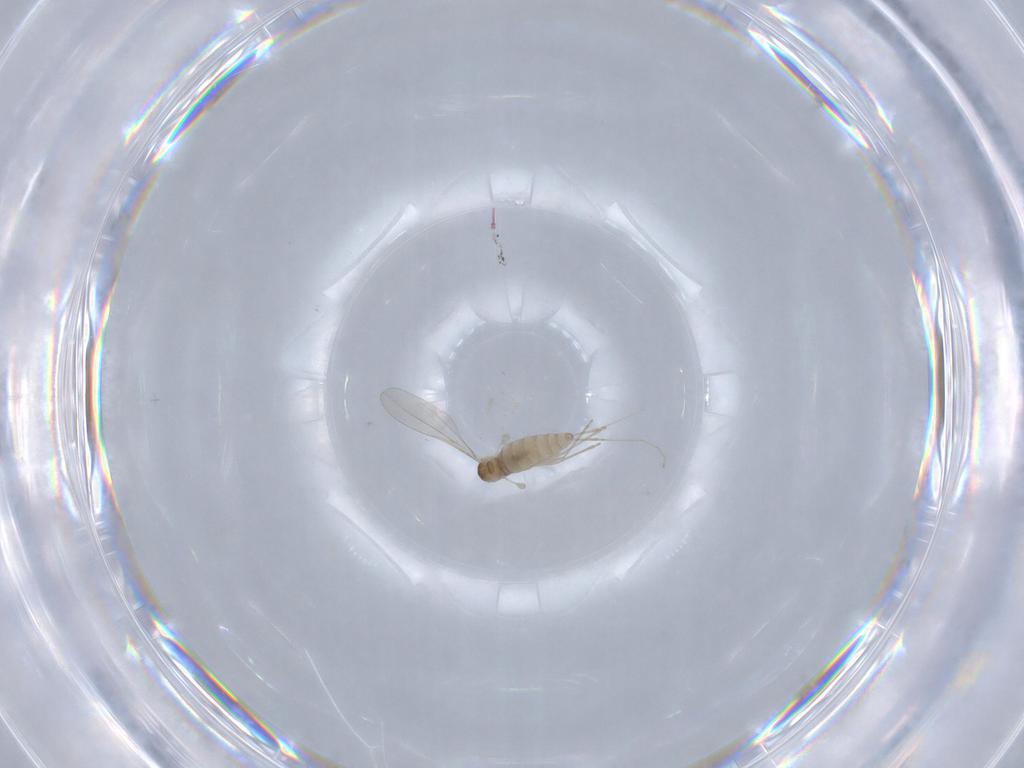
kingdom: Animalia
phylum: Arthropoda
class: Insecta
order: Diptera
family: Cecidomyiidae
